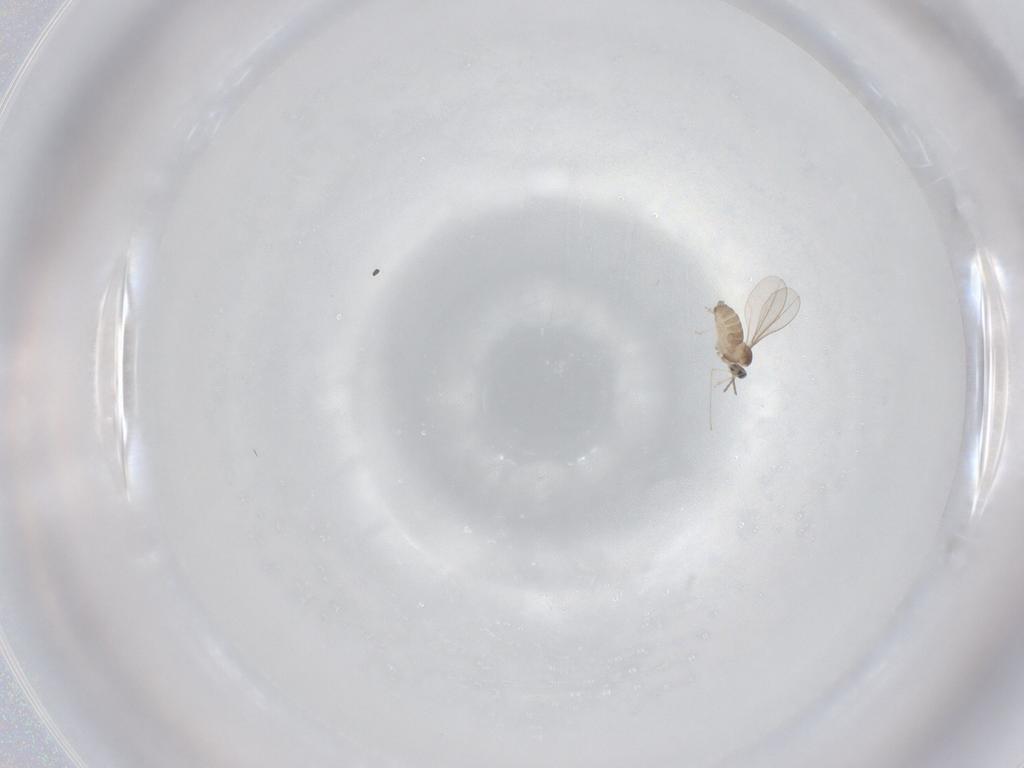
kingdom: Animalia
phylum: Arthropoda
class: Insecta
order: Diptera
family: Cecidomyiidae
